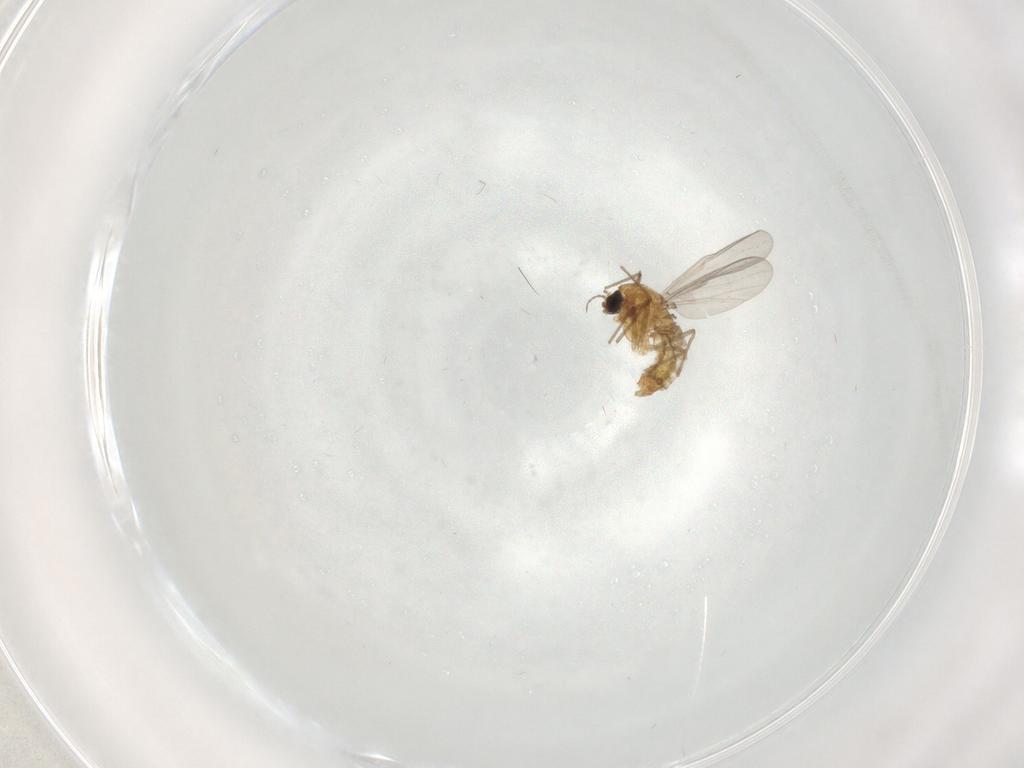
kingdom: Animalia
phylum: Arthropoda
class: Insecta
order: Diptera
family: Chironomidae
